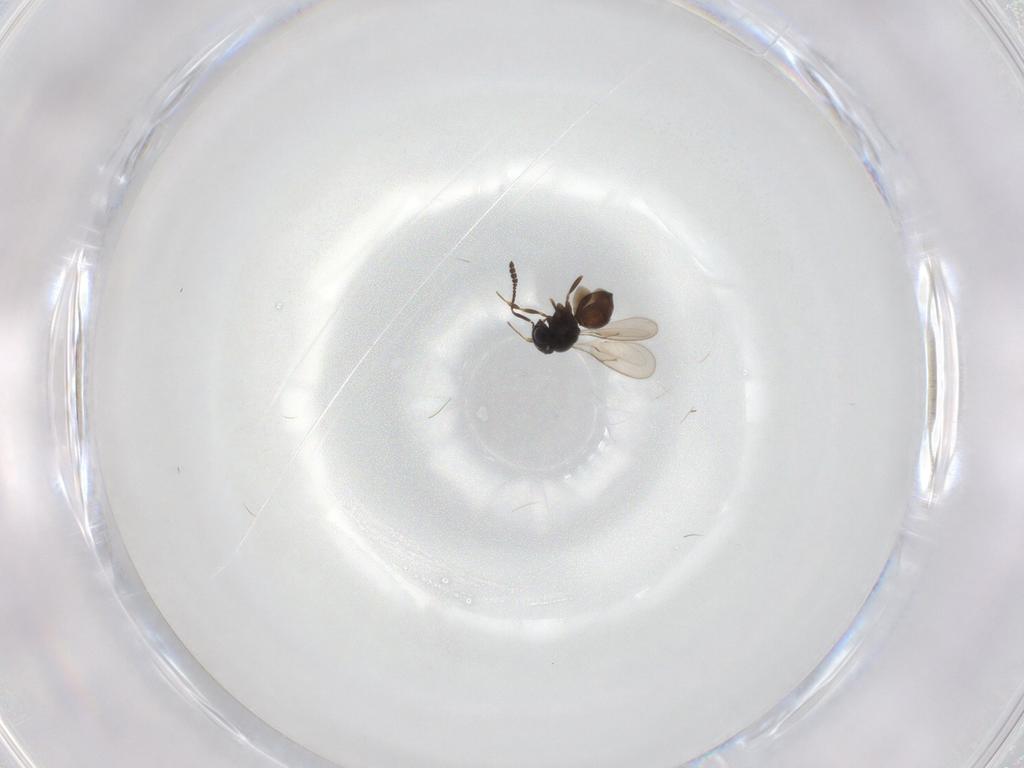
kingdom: Animalia
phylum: Arthropoda
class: Insecta
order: Hymenoptera
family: Scelionidae
